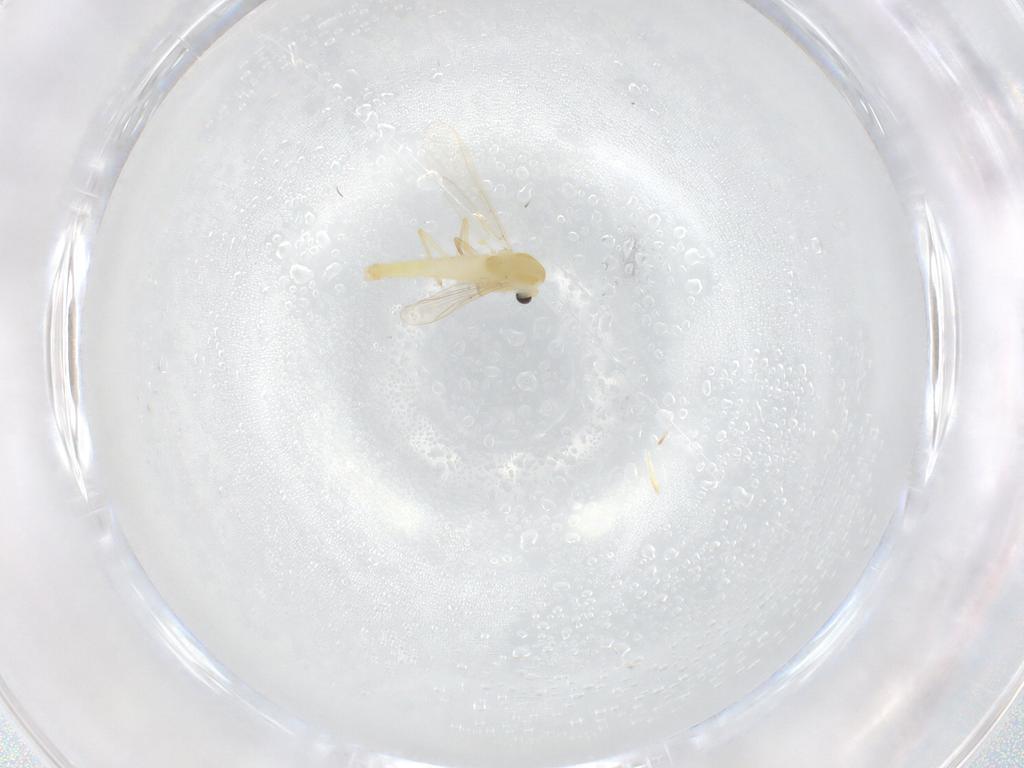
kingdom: Animalia
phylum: Arthropoda
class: Insecta
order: Diptera
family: Chironomidae
